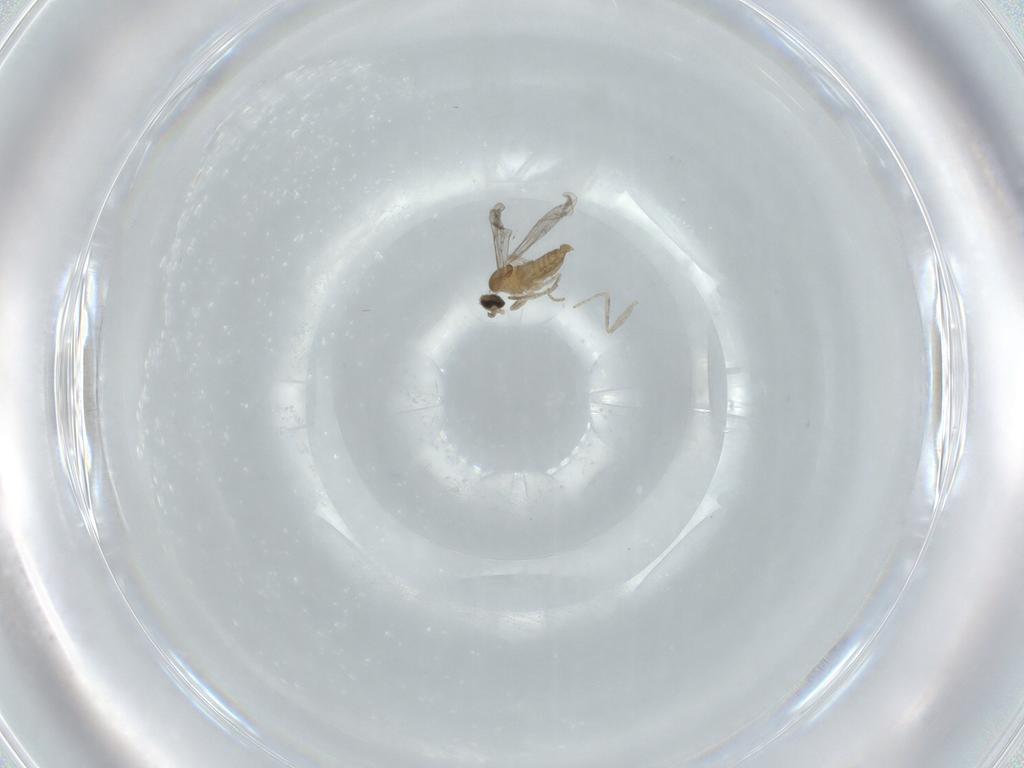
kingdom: Animalia
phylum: Arthropoda
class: Insecta
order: Diptera
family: Cecidomyiidae
